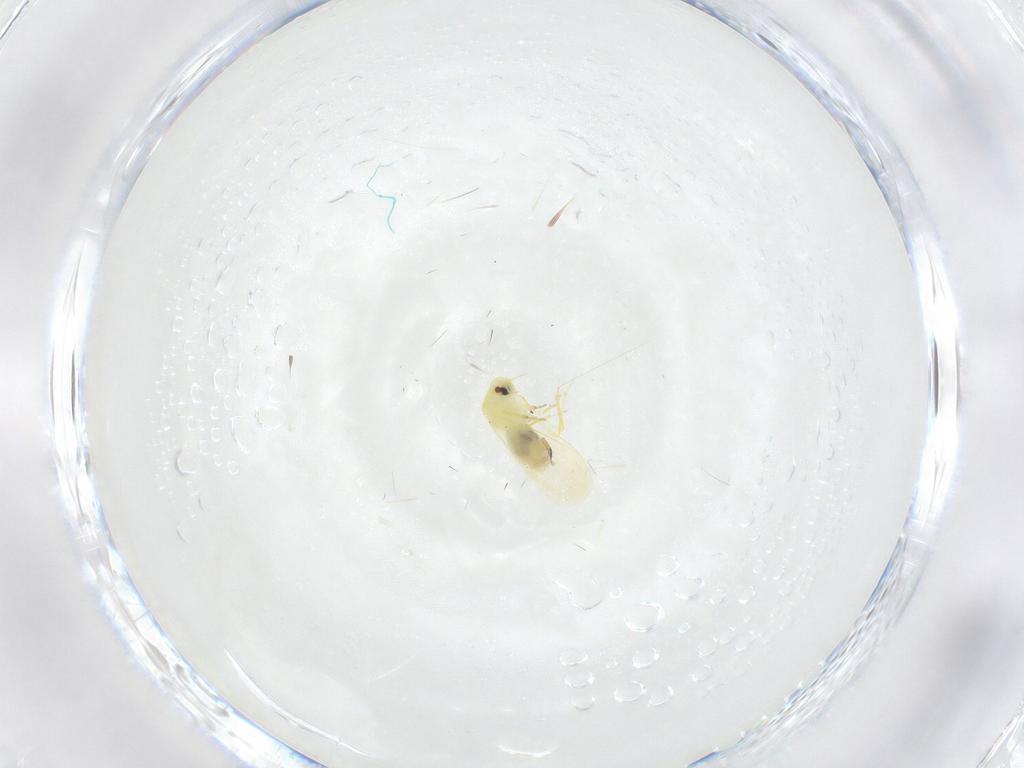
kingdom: Animalia
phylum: Arthropoda
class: Insecta
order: Hemiptera
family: Aleyrodidae
